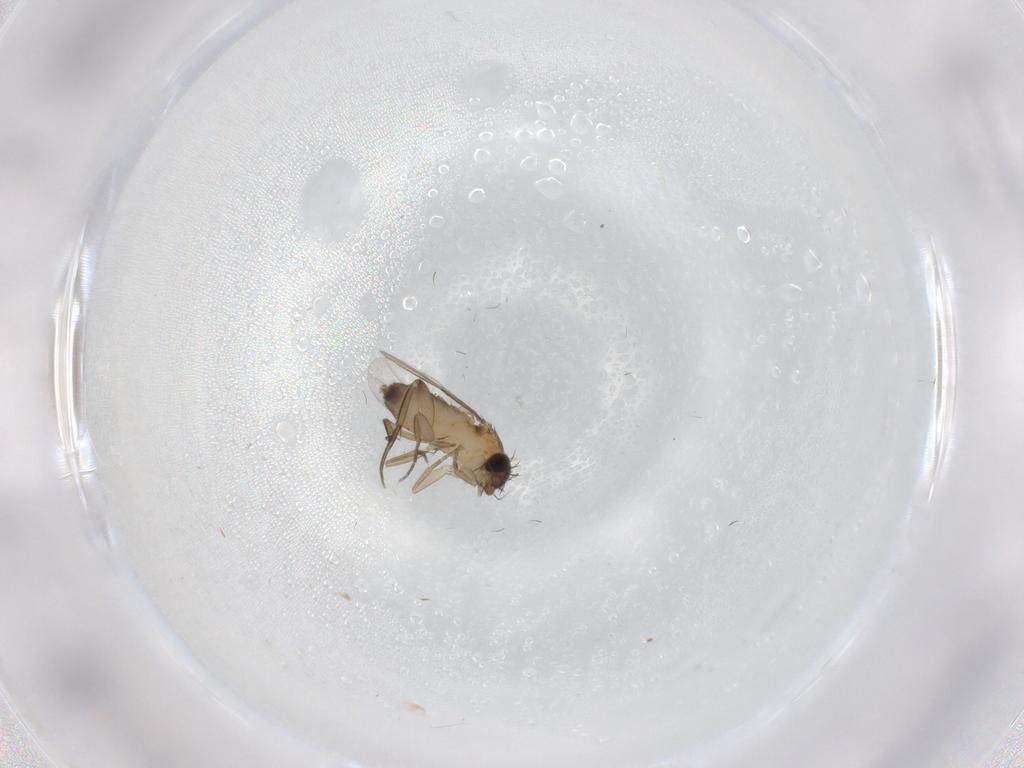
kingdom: Animalia
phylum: Arthropoda
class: Insecta
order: Diptera
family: Phoridae
